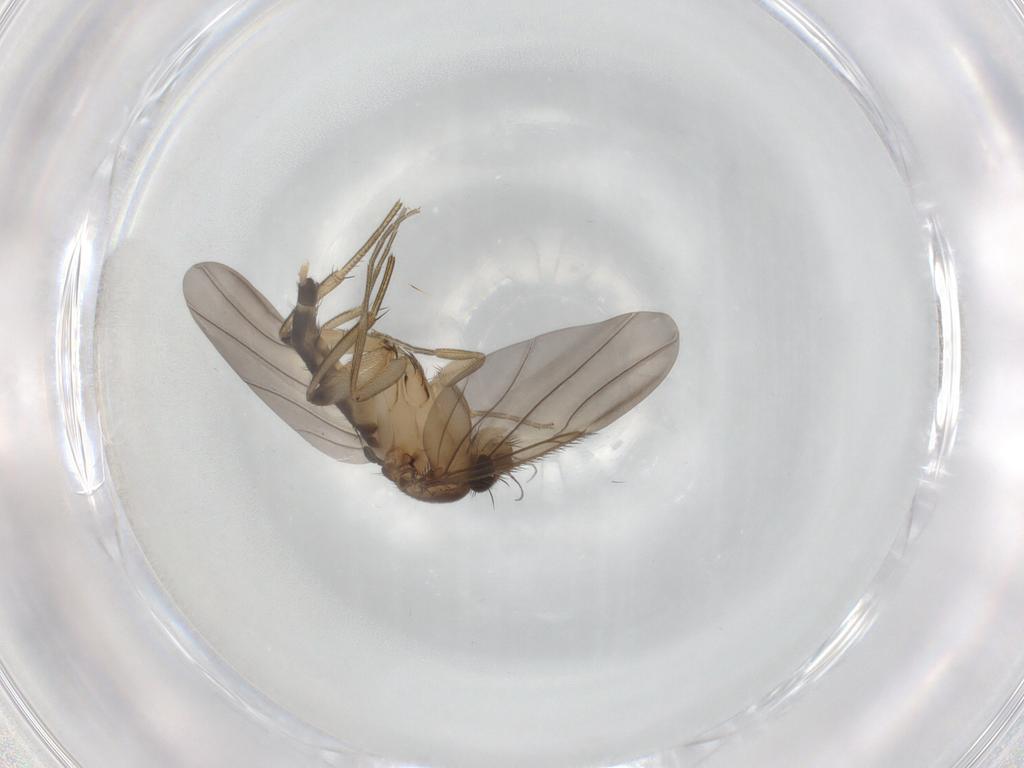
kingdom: Animalia
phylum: Arthropoda
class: Insecta
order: Diptera
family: Phoridae
